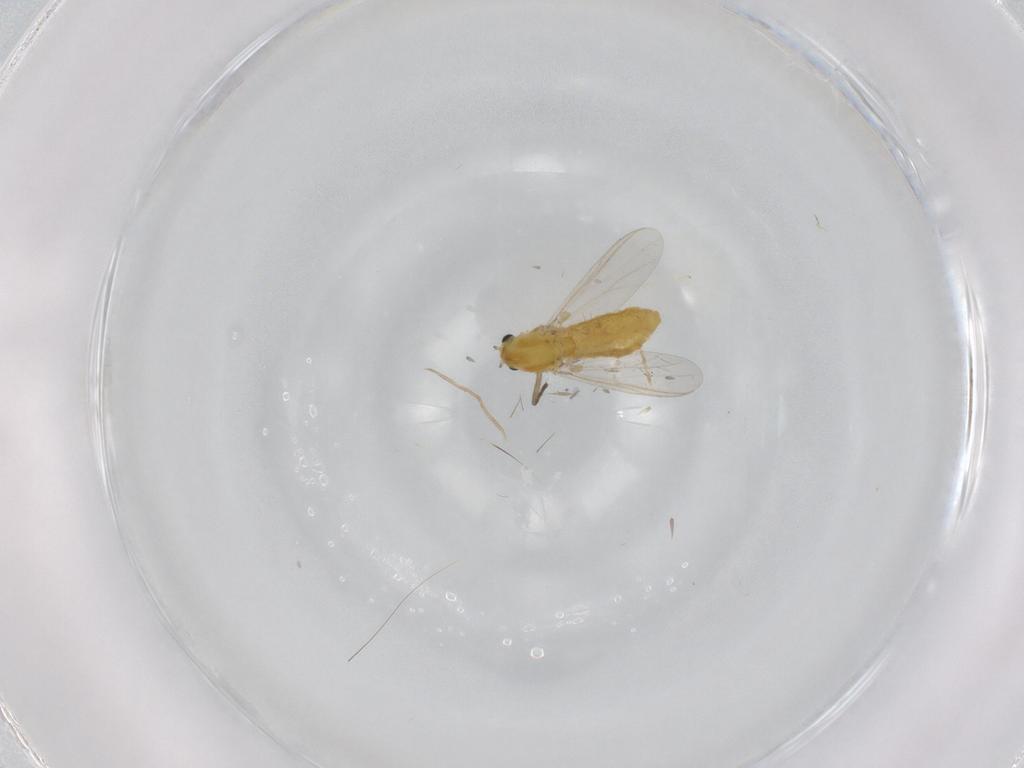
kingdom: Animalia
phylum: Arthropoda
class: Insecta
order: Diptera
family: Chironomidae
